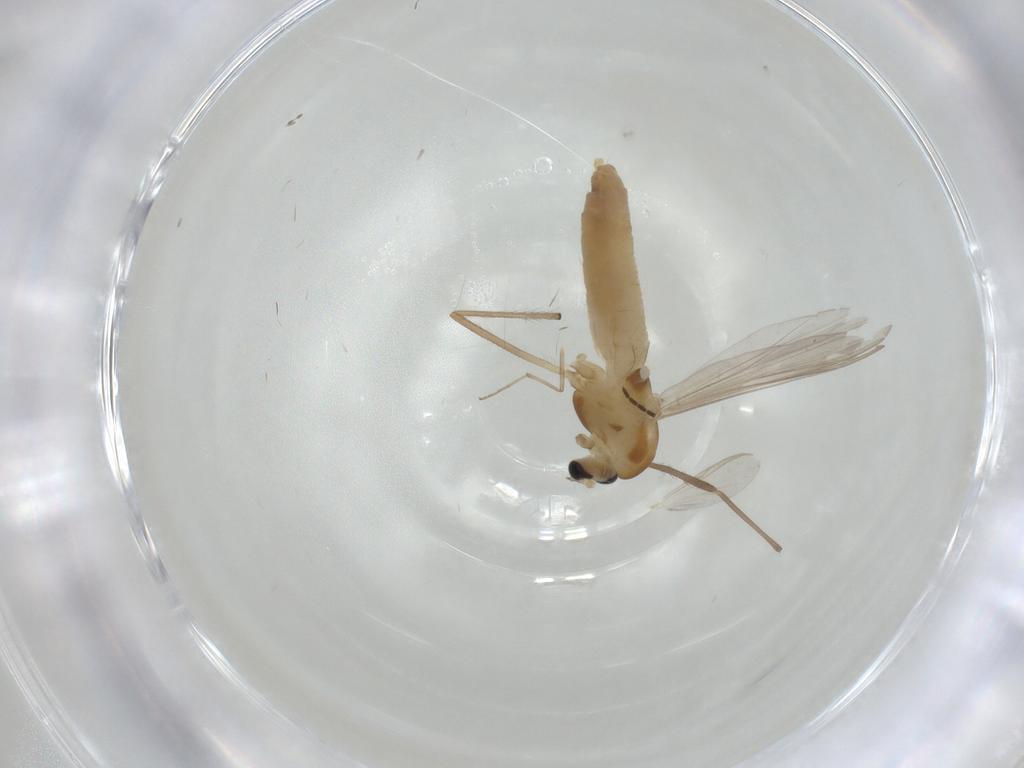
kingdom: Animalia
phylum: Arthropoda
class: Insecta
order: Diptera
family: Chironomidae
